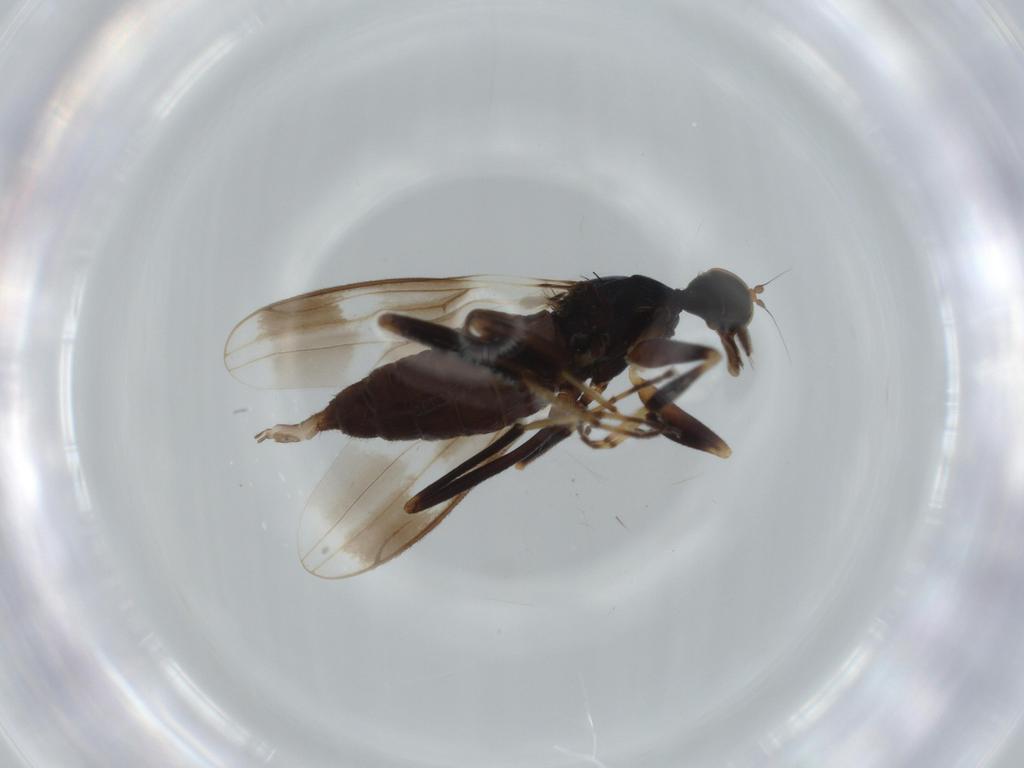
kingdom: Animalia
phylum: Arthropoda
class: Insecta
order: Diptera
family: Hybotidae
